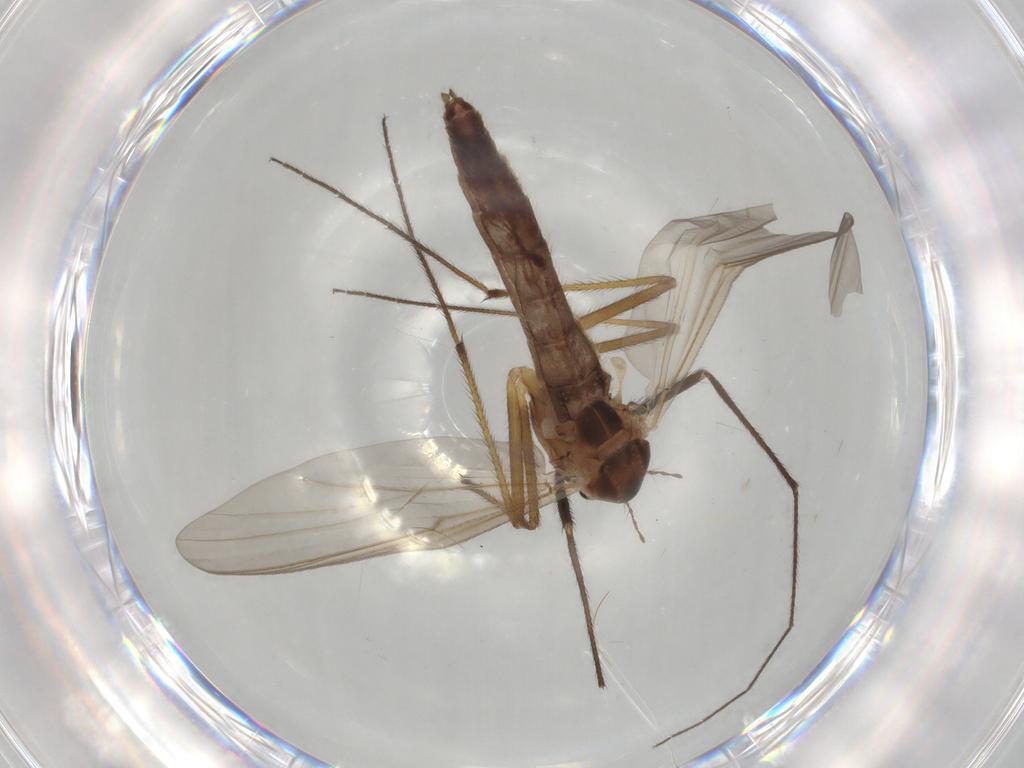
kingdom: Animalia
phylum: Arthropoda
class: Insecta
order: Diptera
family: Chironomidae
